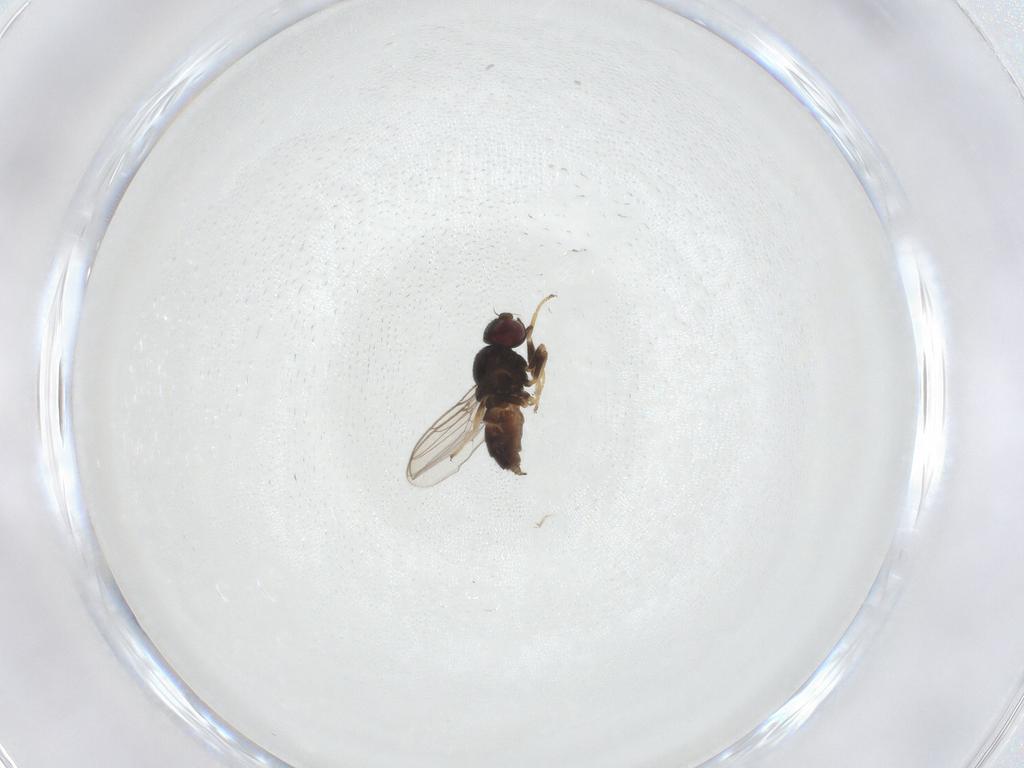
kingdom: Animalia
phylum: Arthropoda
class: Insecta
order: Diptera
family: Chloropidae
